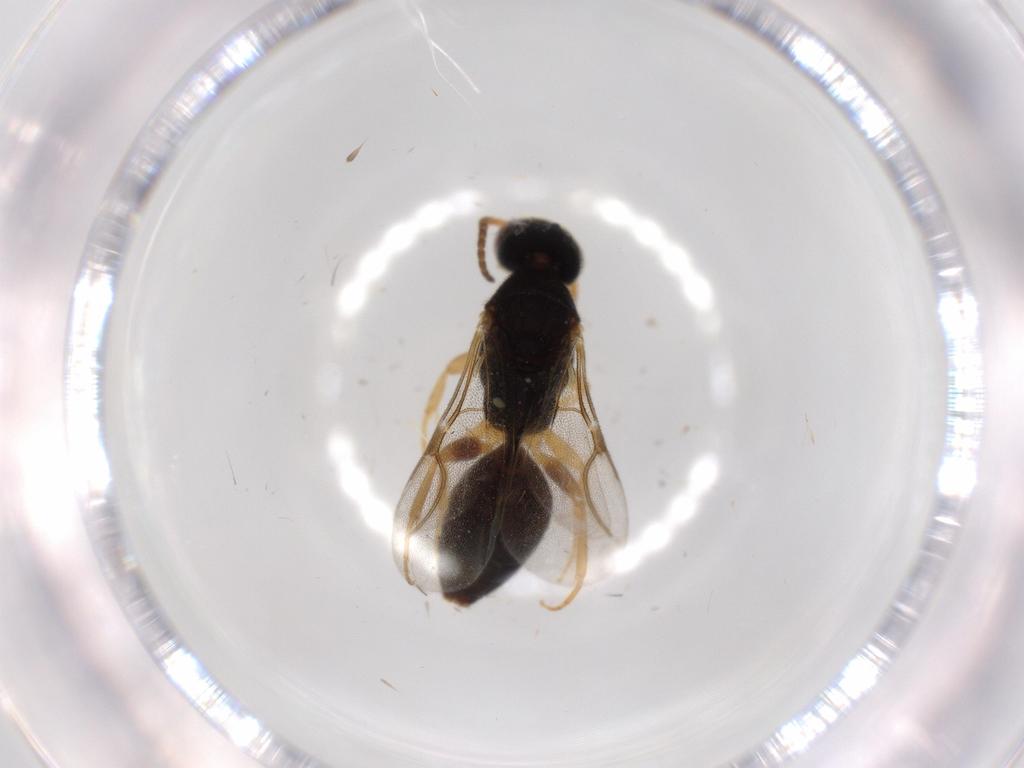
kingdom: Animalia
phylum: Arthropoda
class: Insecta
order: Hymenoptera
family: Bethylidae
